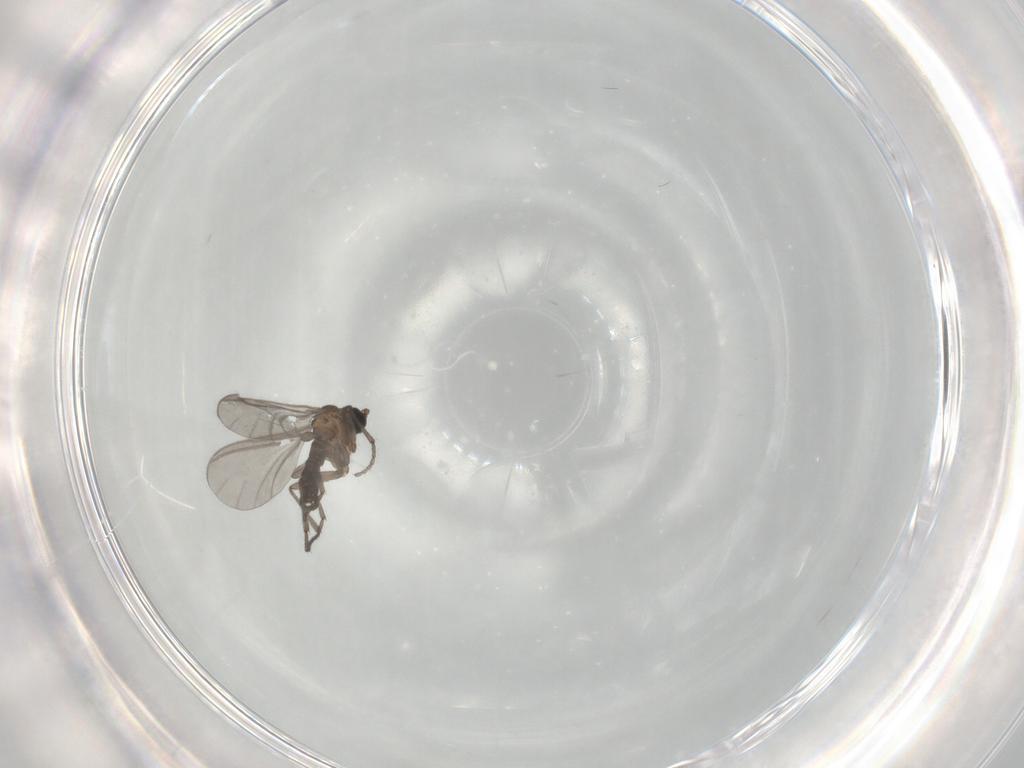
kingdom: Animalia
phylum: Arthropoda
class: Insecta
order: Diptera
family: Sciaridae
